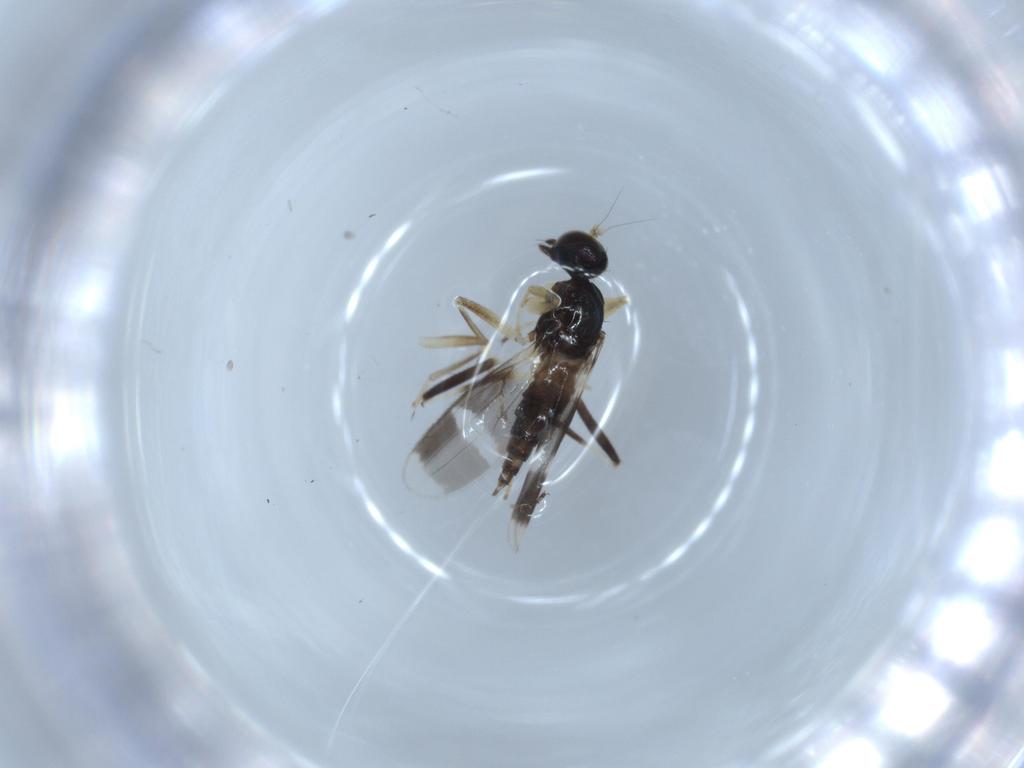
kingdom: Animalia
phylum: Arthropoda
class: Insecta
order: Diptera
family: Hybotidae
